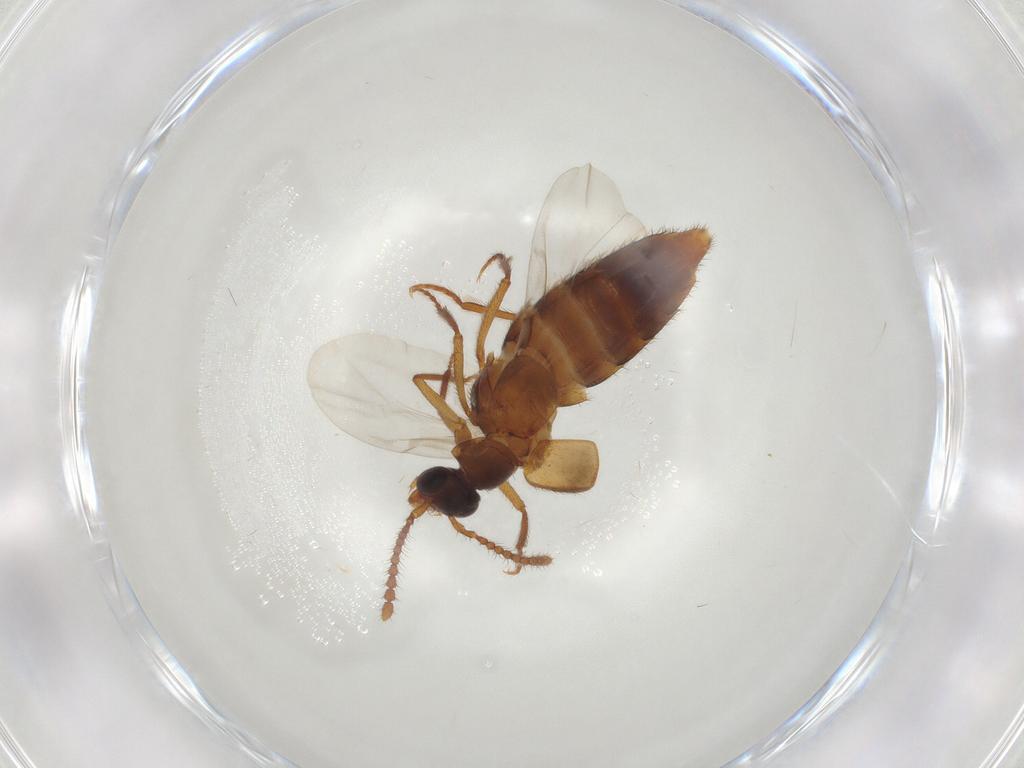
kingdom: Animalia
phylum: Arthropoda
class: Insecta
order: Coleoptera
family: Staphylinidae
